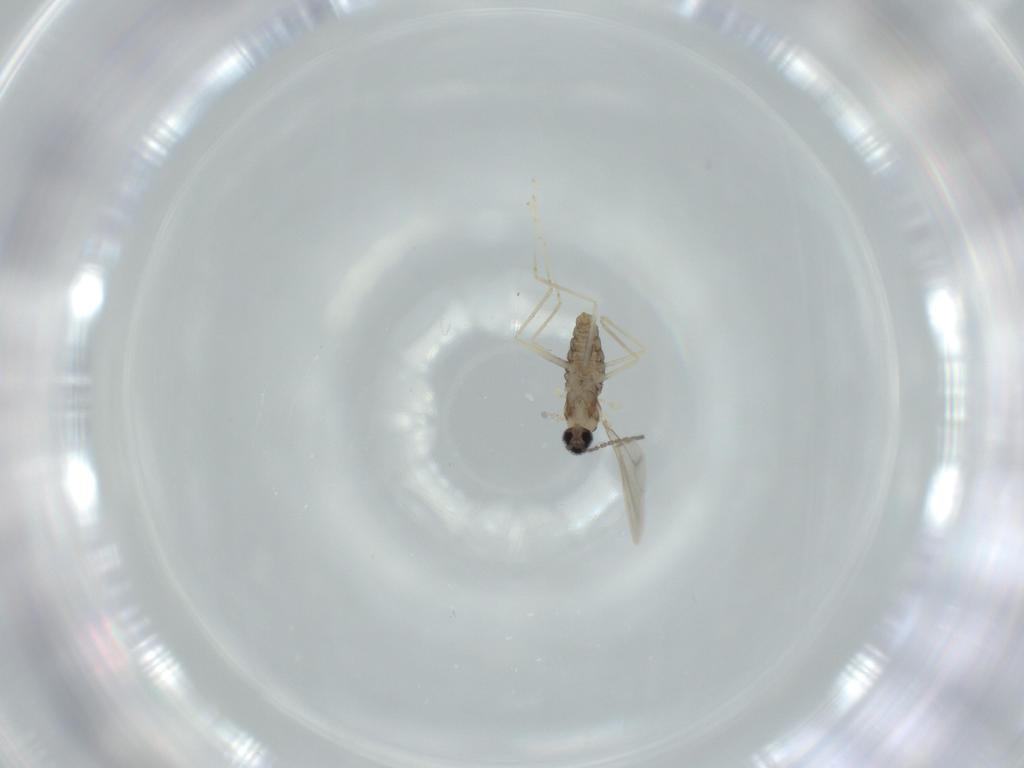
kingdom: Animalia
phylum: Arthropoda
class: Insecta
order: Diptera
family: Cecidomyiidae
